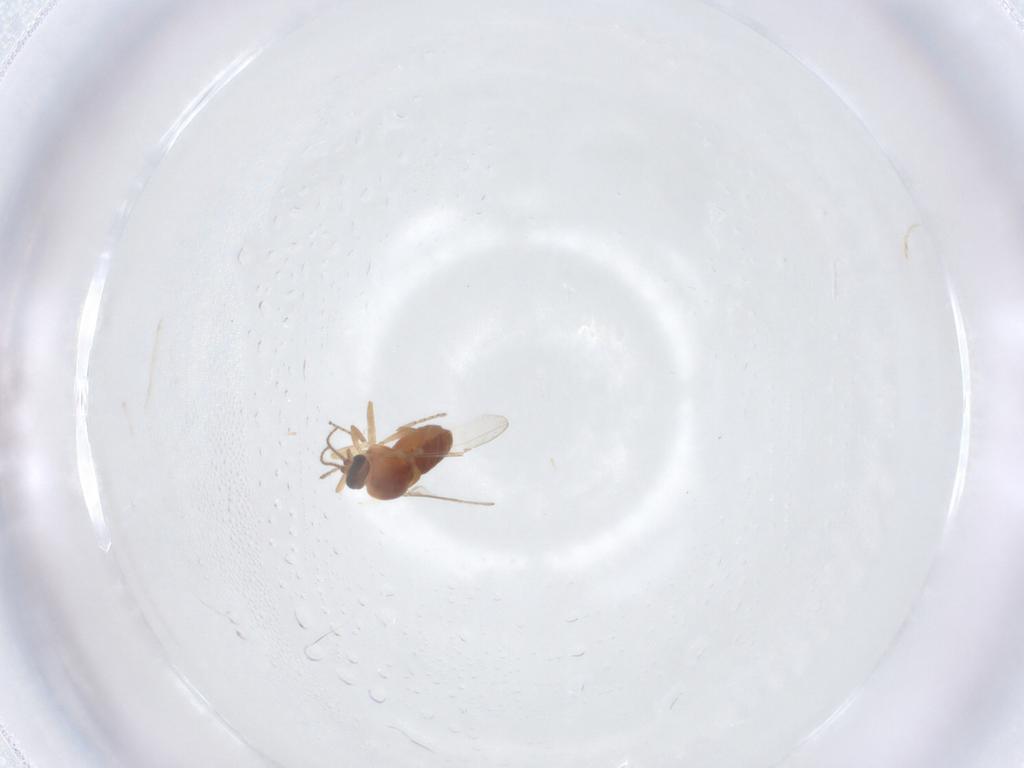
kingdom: Animalia
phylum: Arthropoda
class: Insecta
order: Diptera
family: Ceratopogonidae
